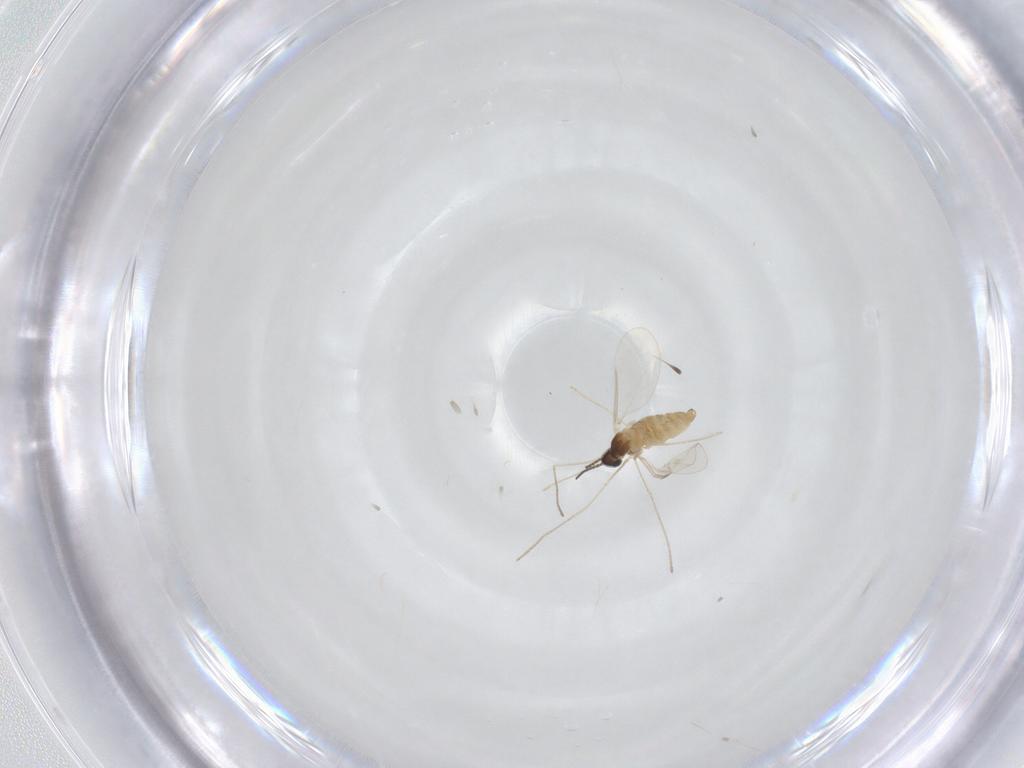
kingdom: Animalia
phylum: Arthropoda
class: Insecta
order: Diptera
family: Cecidomyiidae
